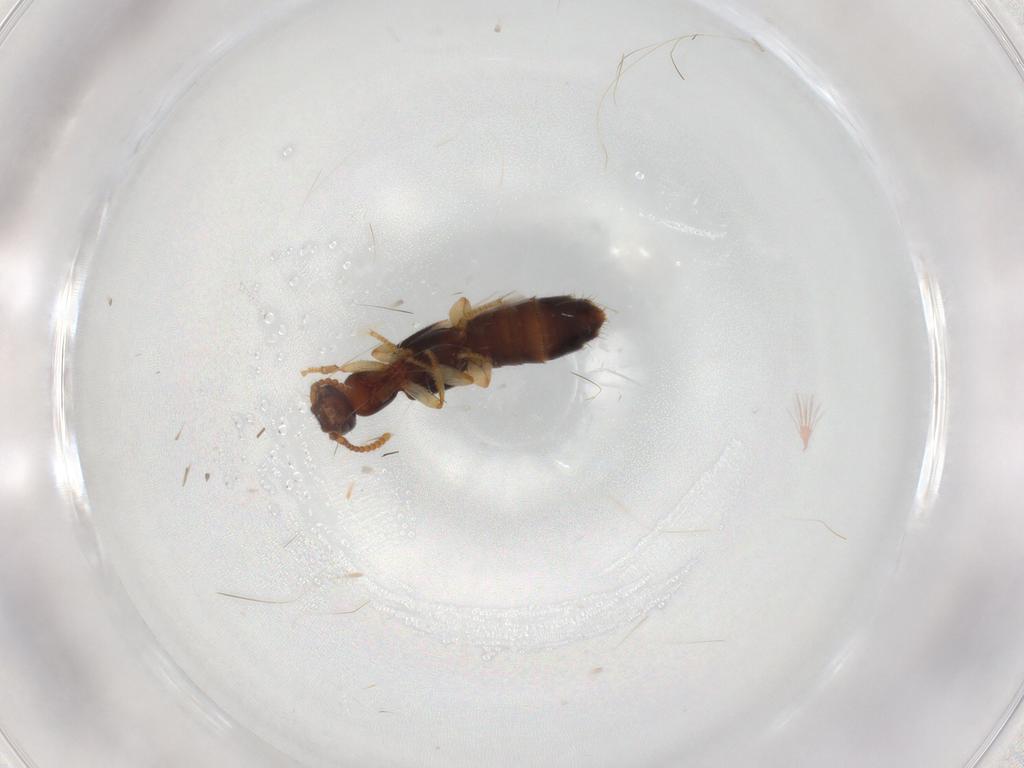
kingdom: Animalia
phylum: Arthropoda
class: Insecta
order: Coleoptera
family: Staphylinidae
